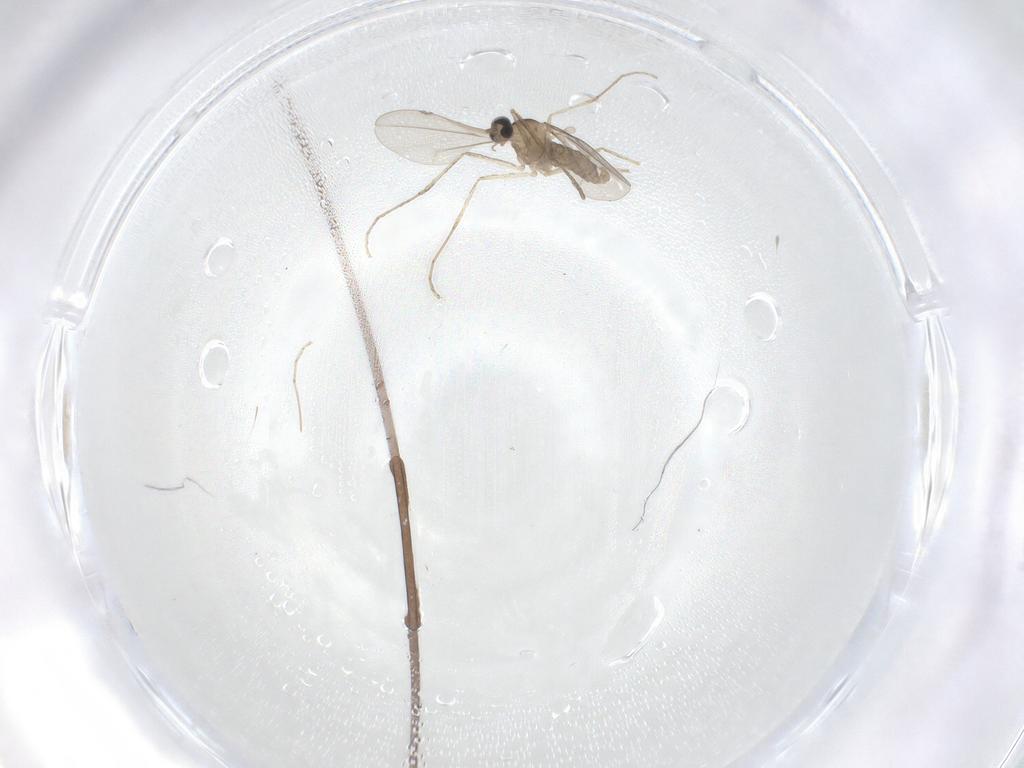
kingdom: Animalia
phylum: Arthropoda
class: Insecta
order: Diptera
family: Cecidomyiidae
